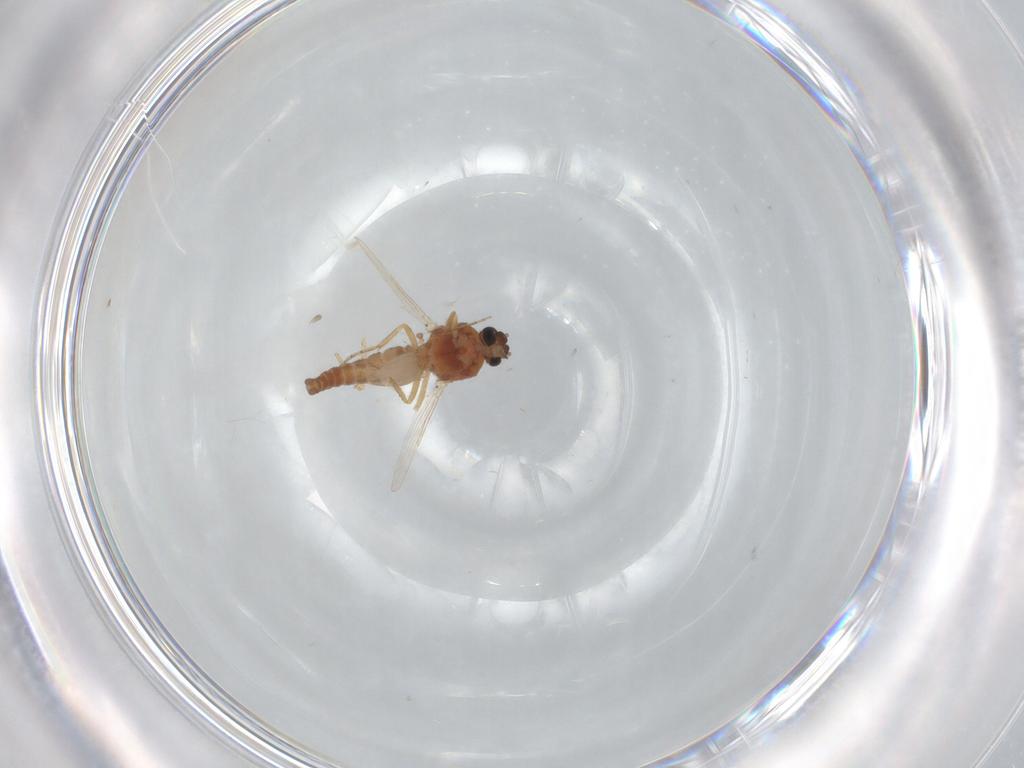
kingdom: Animalia
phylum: Arthropoda
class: Insecta
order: Diptera
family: Ceratopogonidae
